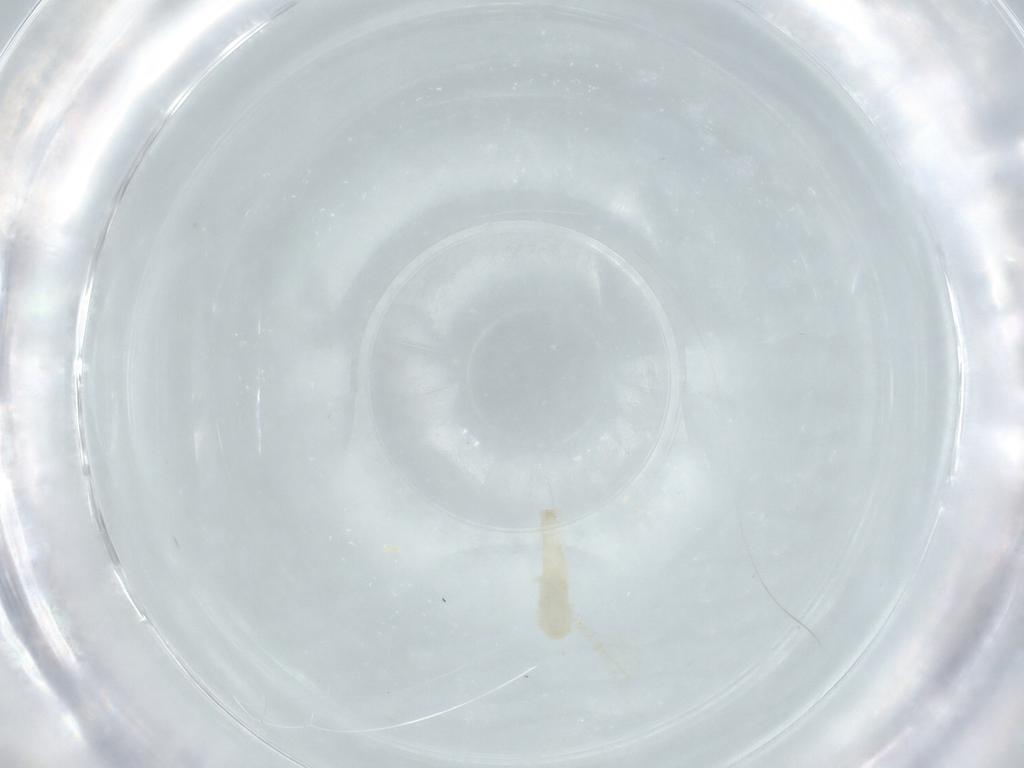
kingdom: Animalia
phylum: Arthropoda
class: Insecta
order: Diptera
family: Cecidomyiidae
